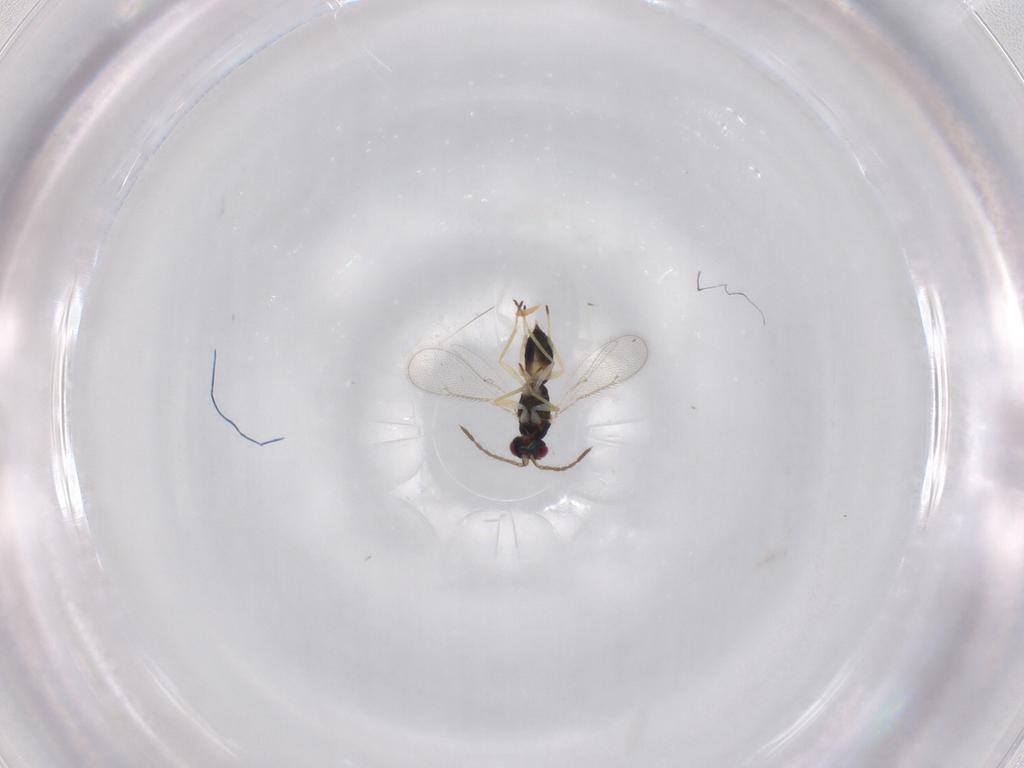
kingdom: Animalia
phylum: Arthropoda
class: Insecta
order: Hymenoptera
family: Eulophidae
